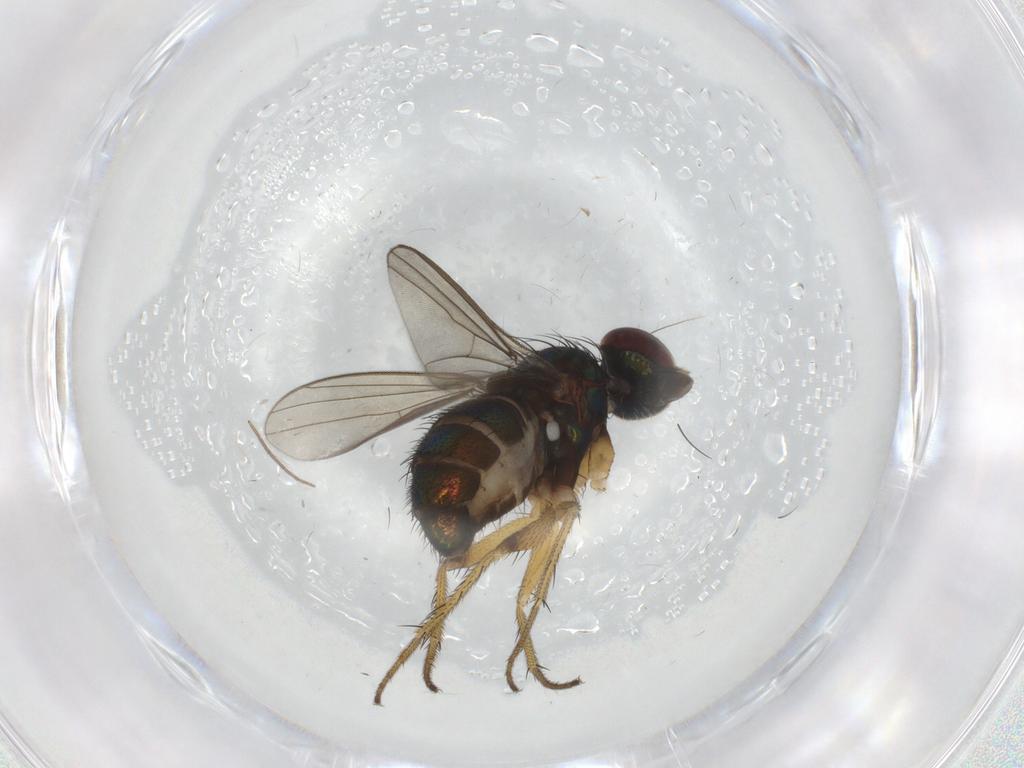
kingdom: Animalia
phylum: Arthropoda
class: Insecta
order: Diptera
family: Dolichopodidae
